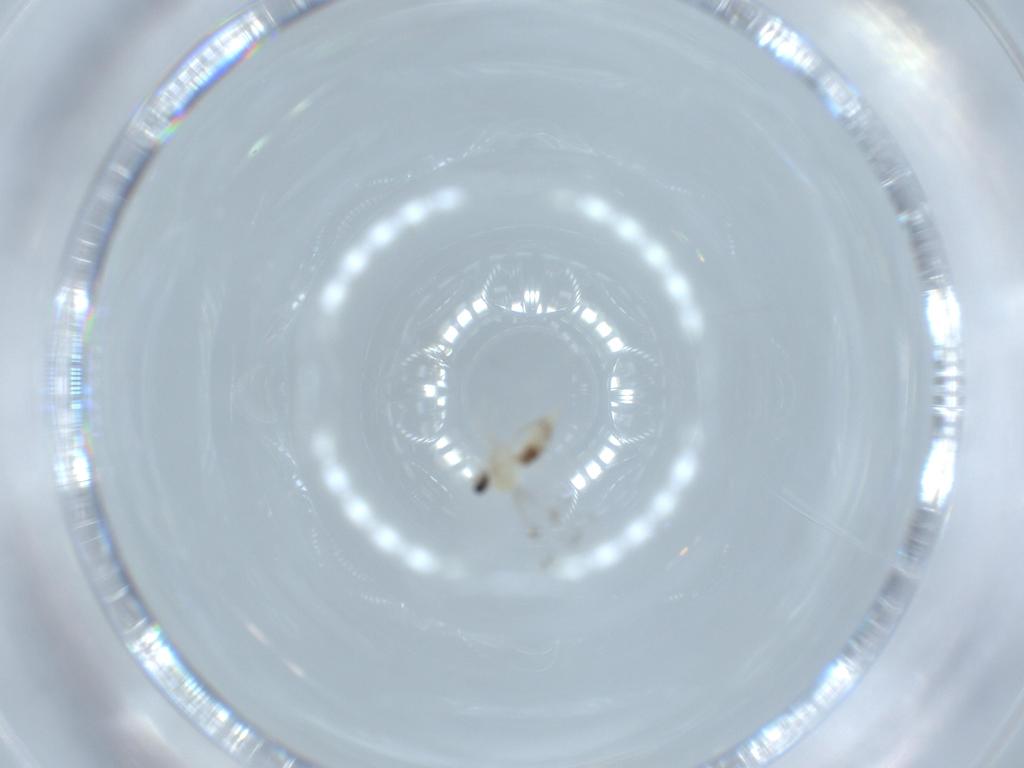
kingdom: Animalia
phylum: Arthropoda
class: Insecta
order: Diptera
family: Cecidomyiidae
